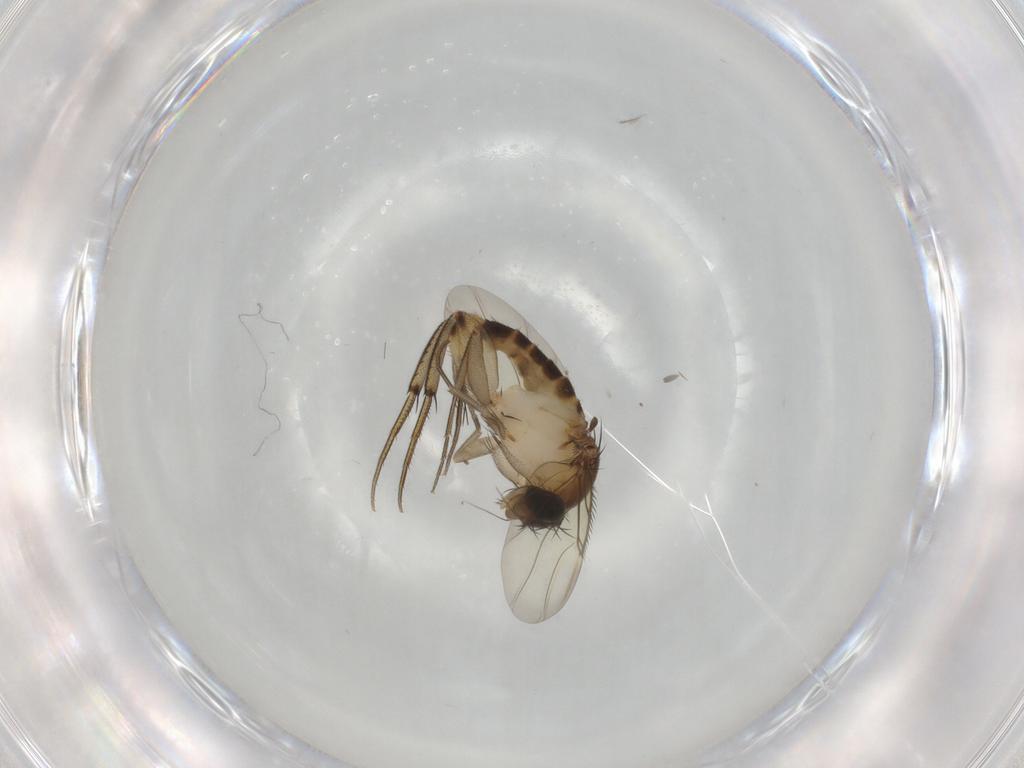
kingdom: Animalia
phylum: Arthropoda
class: Insecta
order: Diptera
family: Phoridae
